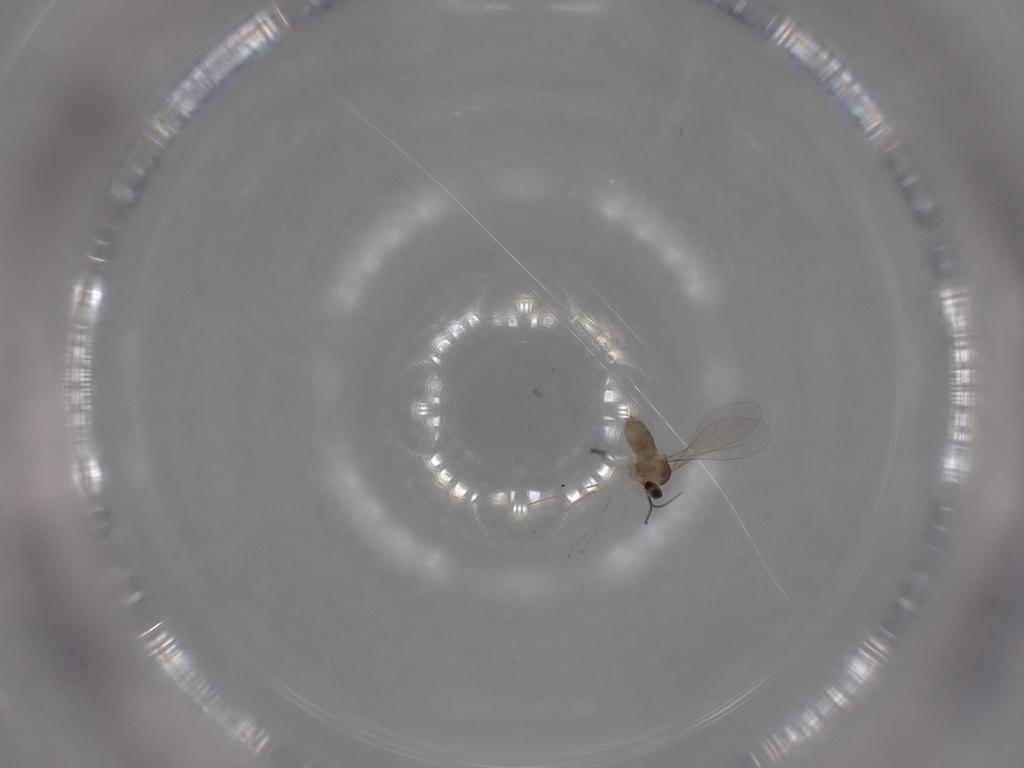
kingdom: Animalia
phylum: Arthropoda
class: Insecta
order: Diptera
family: Cecidomyiidae
